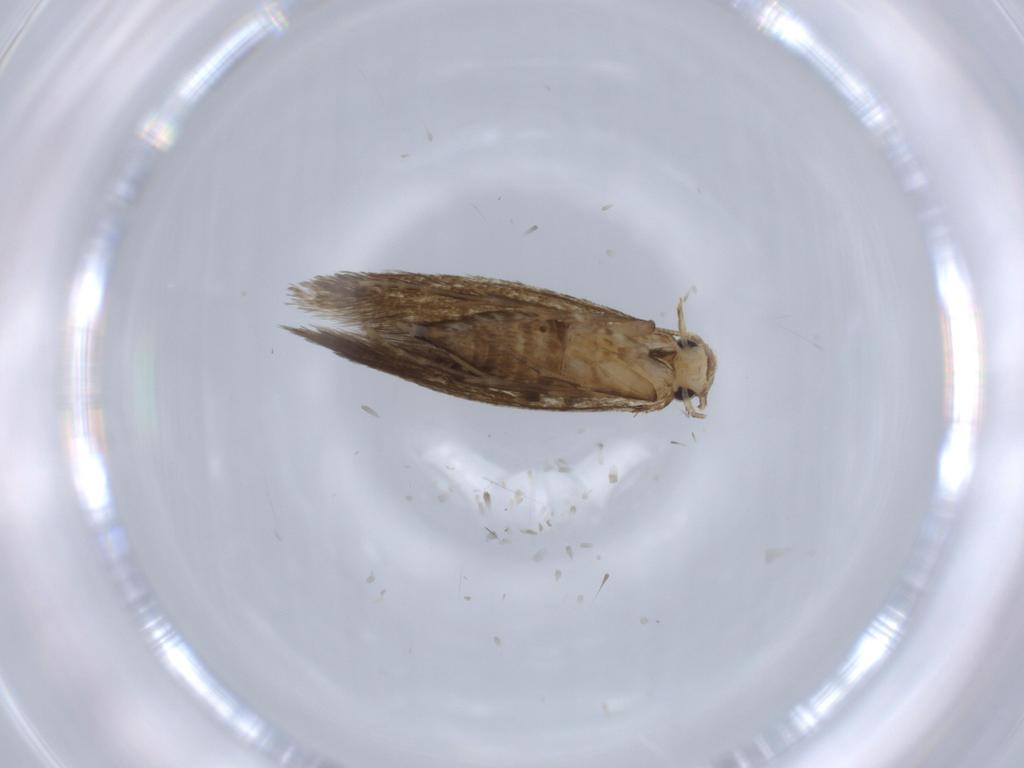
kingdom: Animalia
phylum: Arthropoda
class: Insecta
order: Lepidoptera
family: Tineidae
